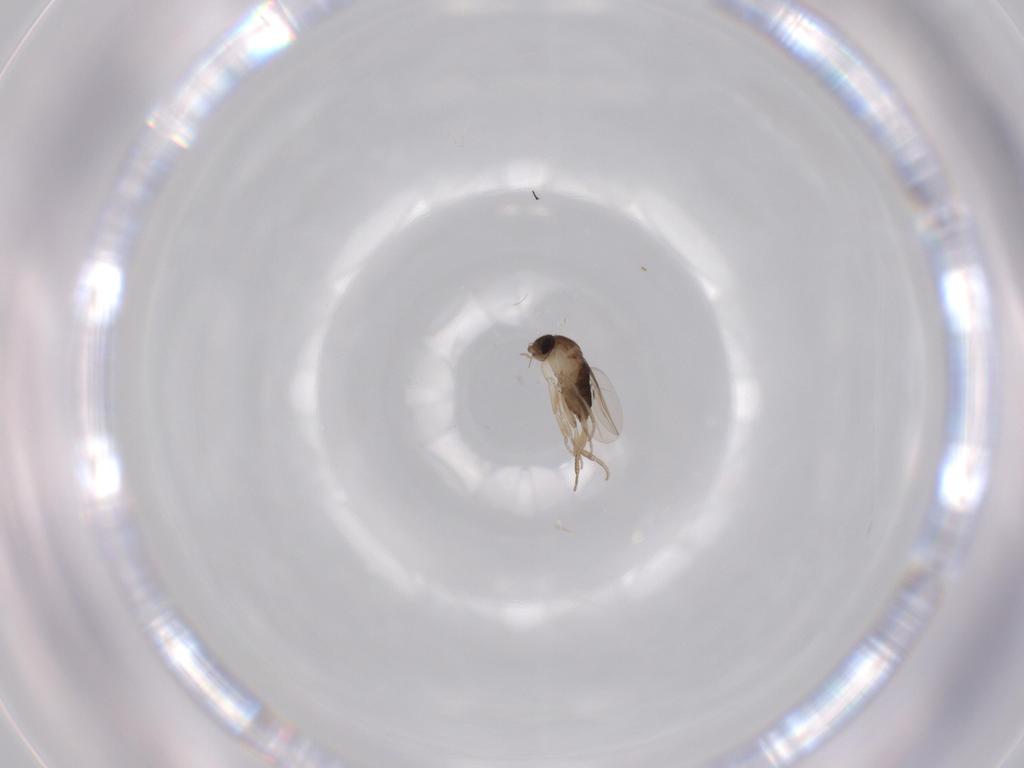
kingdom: Animalia
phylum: Arthropoda
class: Insecta
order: Diptera
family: Phoridae
